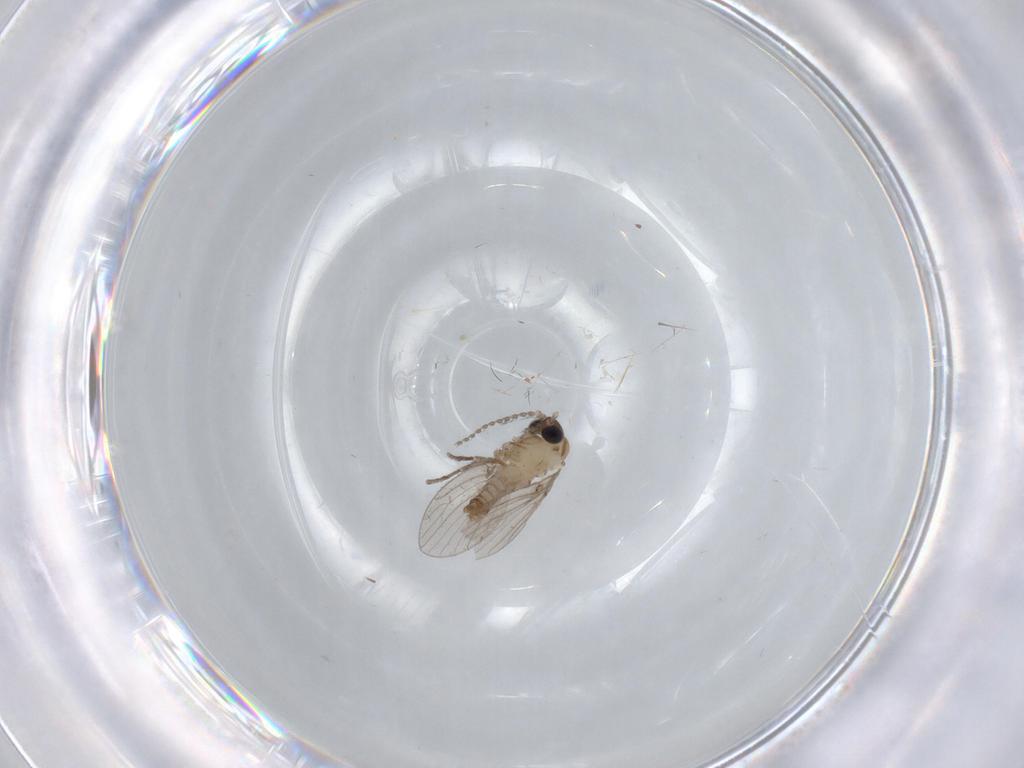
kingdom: Animalia
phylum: Arthropoda
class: Insecta
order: Diptera
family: Psychodidae
